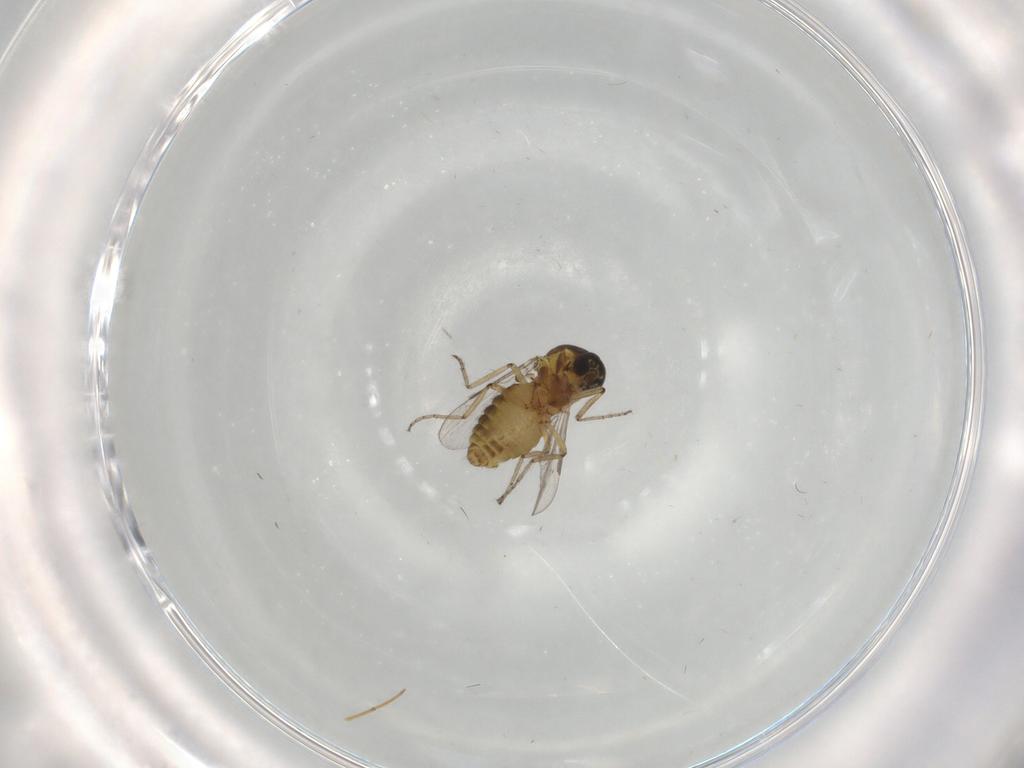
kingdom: Animalia
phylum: Arthropoda
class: Insecta
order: Diptera
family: Ceratopogonidae
